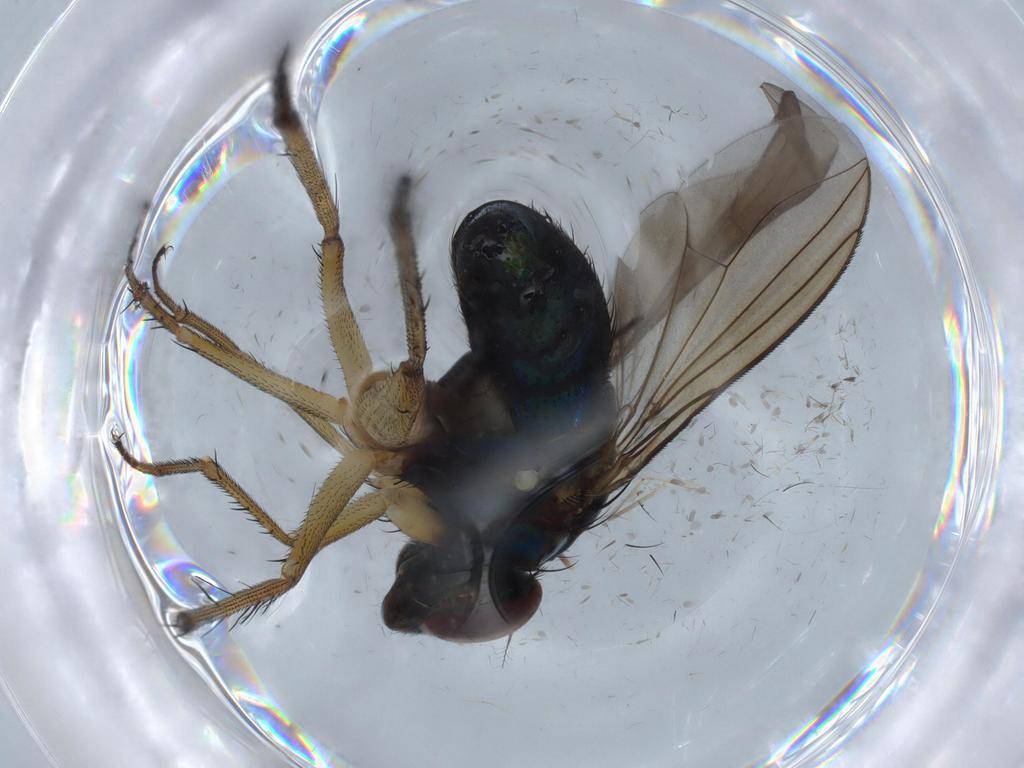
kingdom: Animalia
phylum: Arthropoda
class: Insecta
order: Diptera
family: Dolichopodidae
